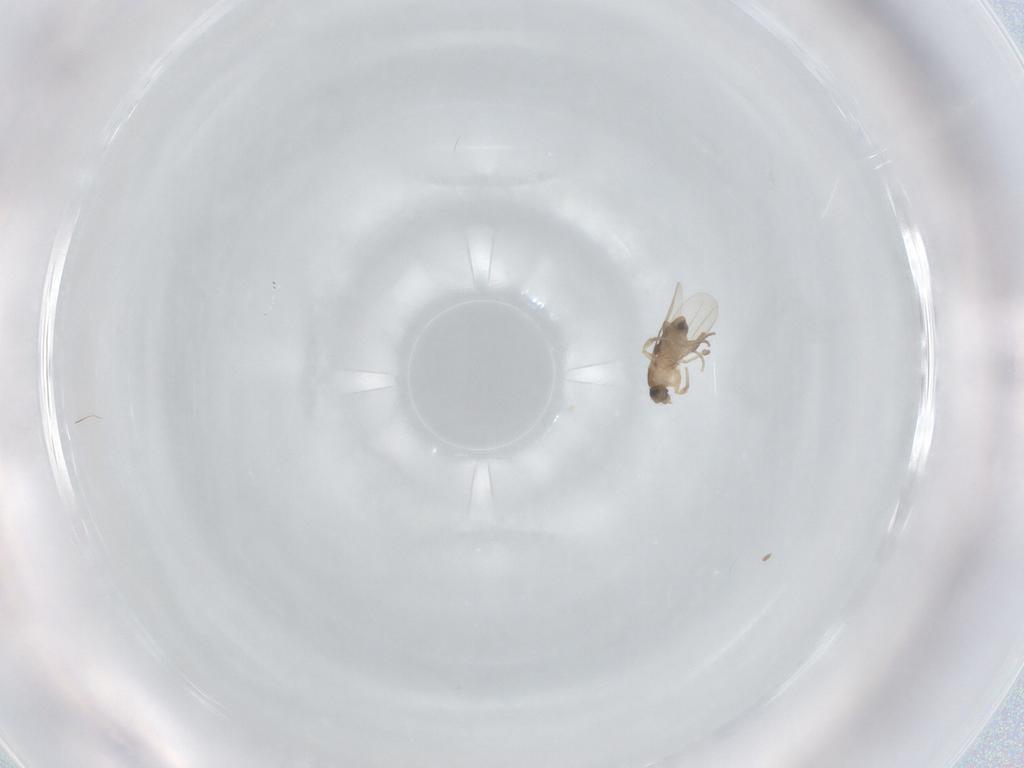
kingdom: Animalia
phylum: Arthropoda
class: Insecta
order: Diptera
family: Phoridae
